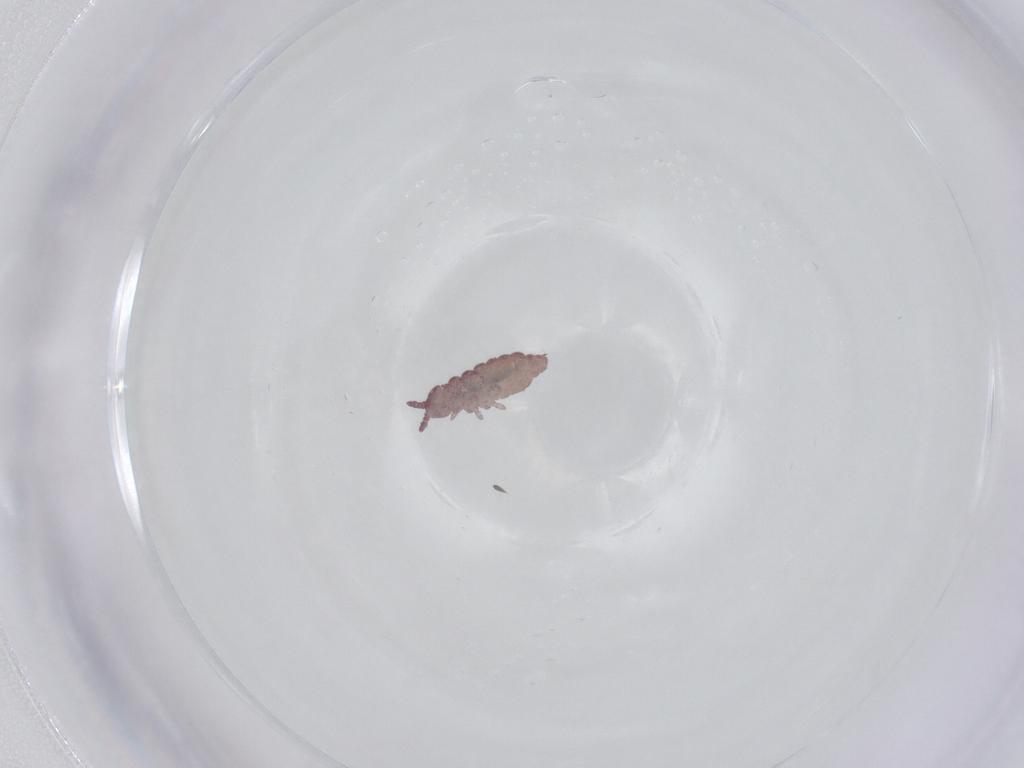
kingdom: Animalia
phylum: Arthropoda
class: Collembola
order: Poduromorpha
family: Hypogastruridae
